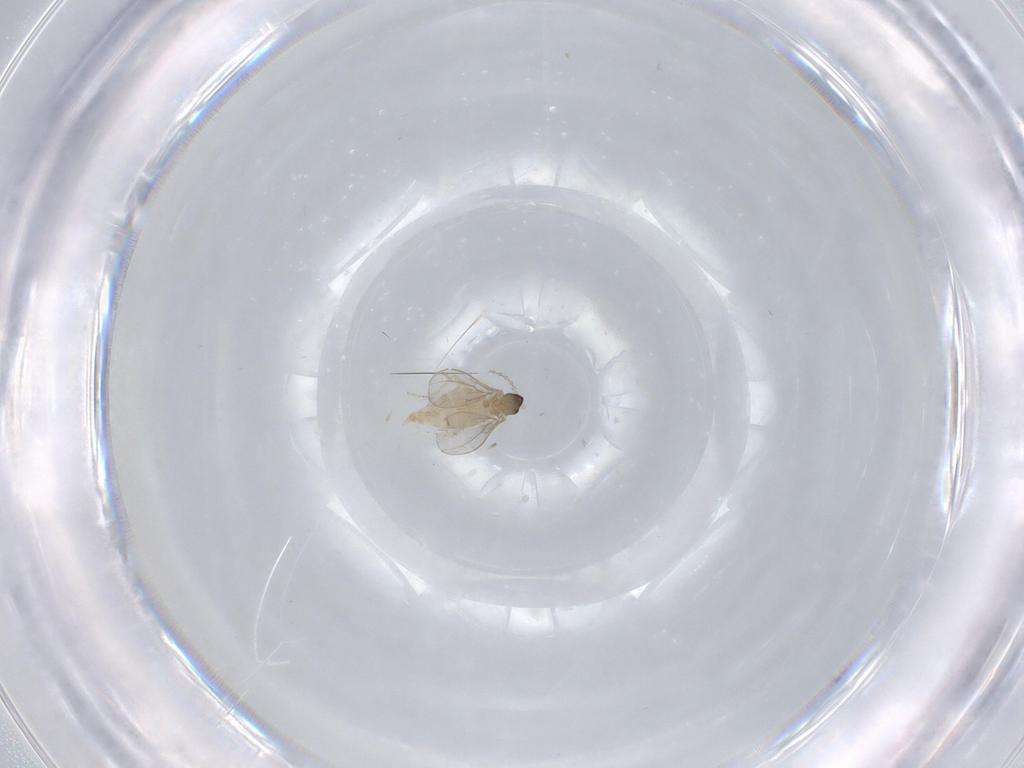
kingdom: Animalia
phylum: Arthropoda
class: Insecta
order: Diptera
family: Cecidomyiidae
